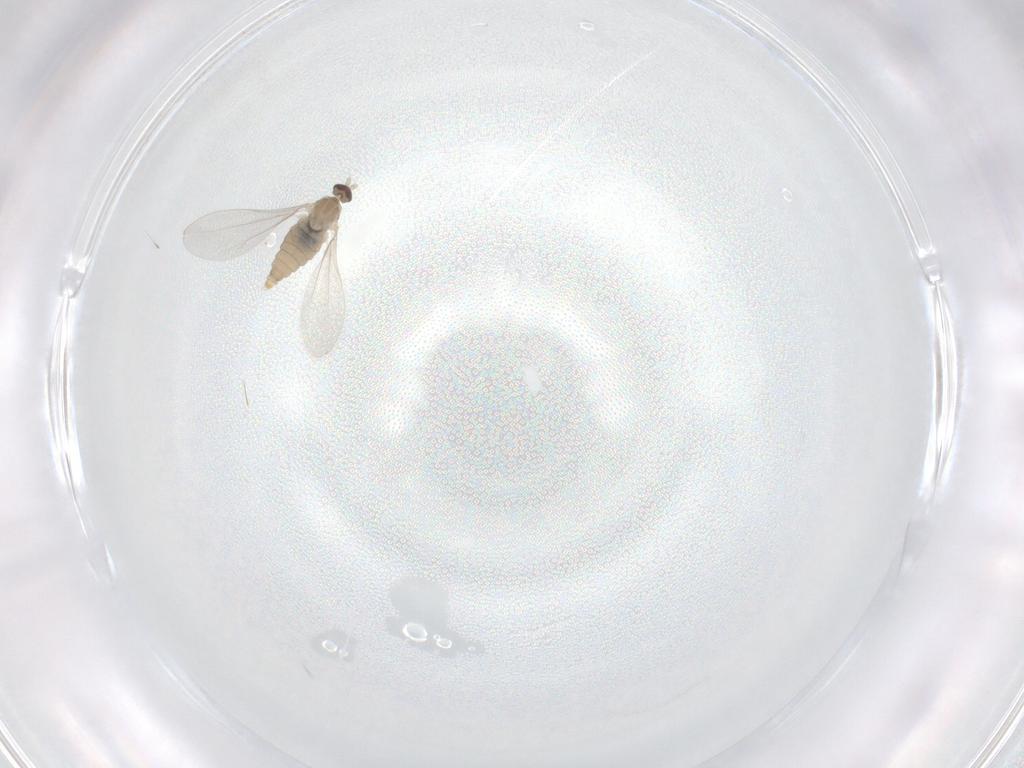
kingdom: Animalia
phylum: Arthropoda
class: Insecta
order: Diptera
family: Cecidomyiidae
